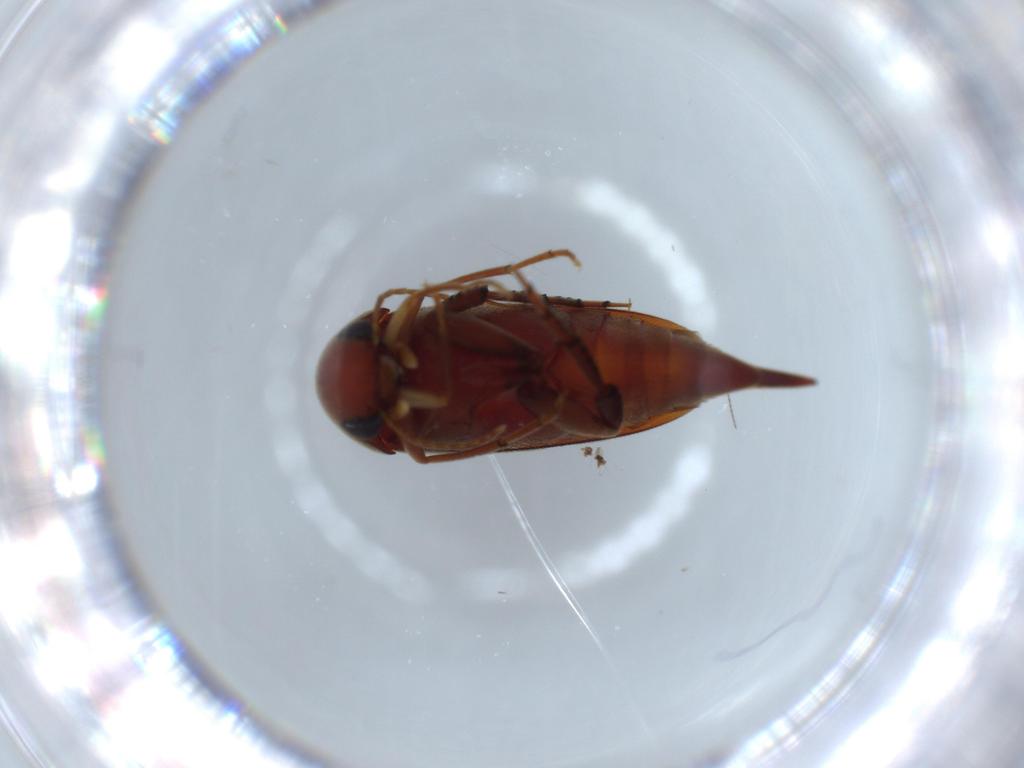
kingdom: Animalia
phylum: Arthropoda
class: Insecta
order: Coleoptera
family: Mordellidae
